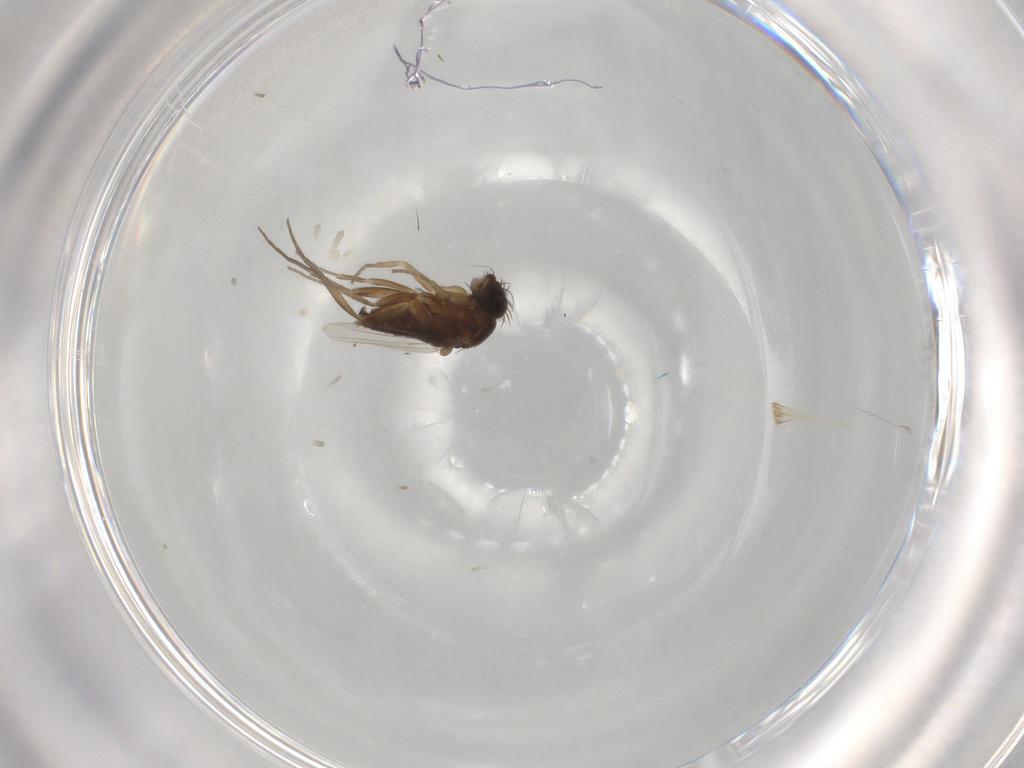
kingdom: Animalia
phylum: Arthropoda
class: Insecta
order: Diptera
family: Phoridae
